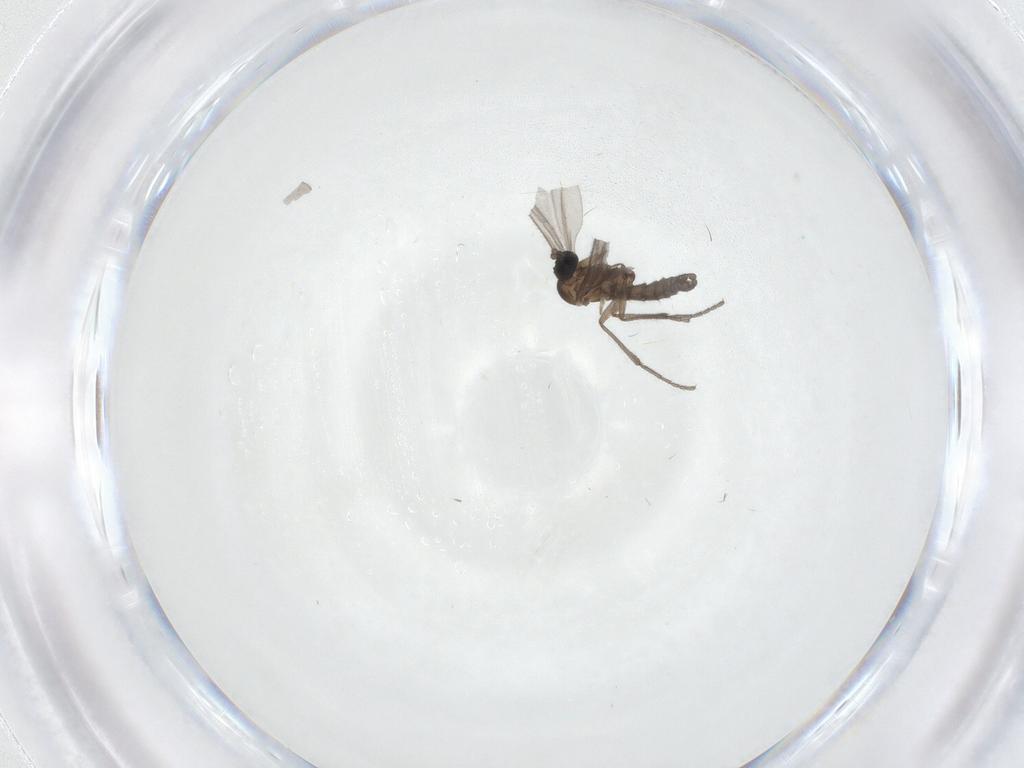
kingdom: Animalia
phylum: Arthropoda
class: Insecta
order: Diptera
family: Sciaridae
